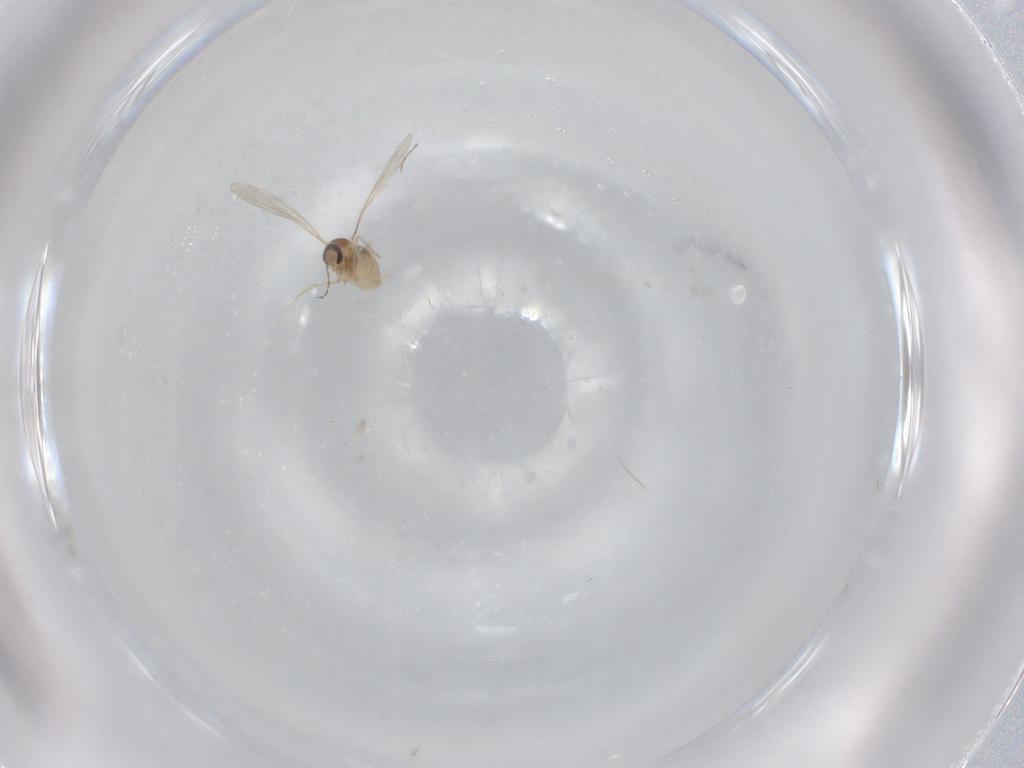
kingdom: Animalia
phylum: Arthropoda
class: Insecta
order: Diptera
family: Cecidomyiidae
